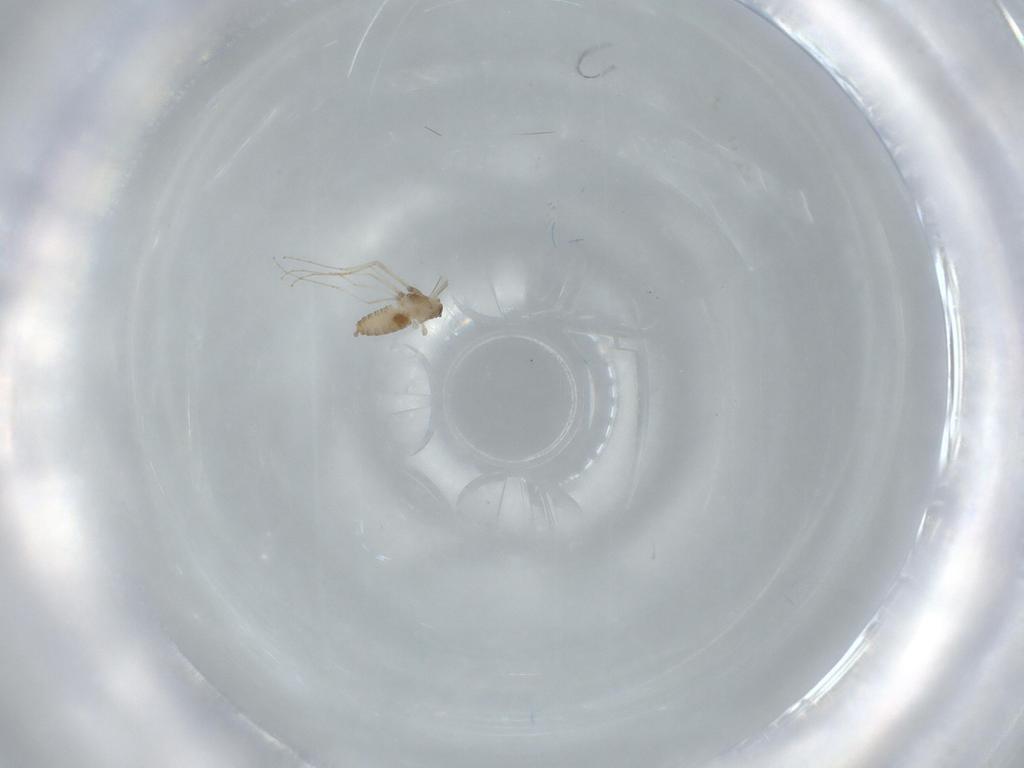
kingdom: Animalia
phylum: Arthropoda
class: Insecta
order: Diptera
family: Cecidomyiidae
